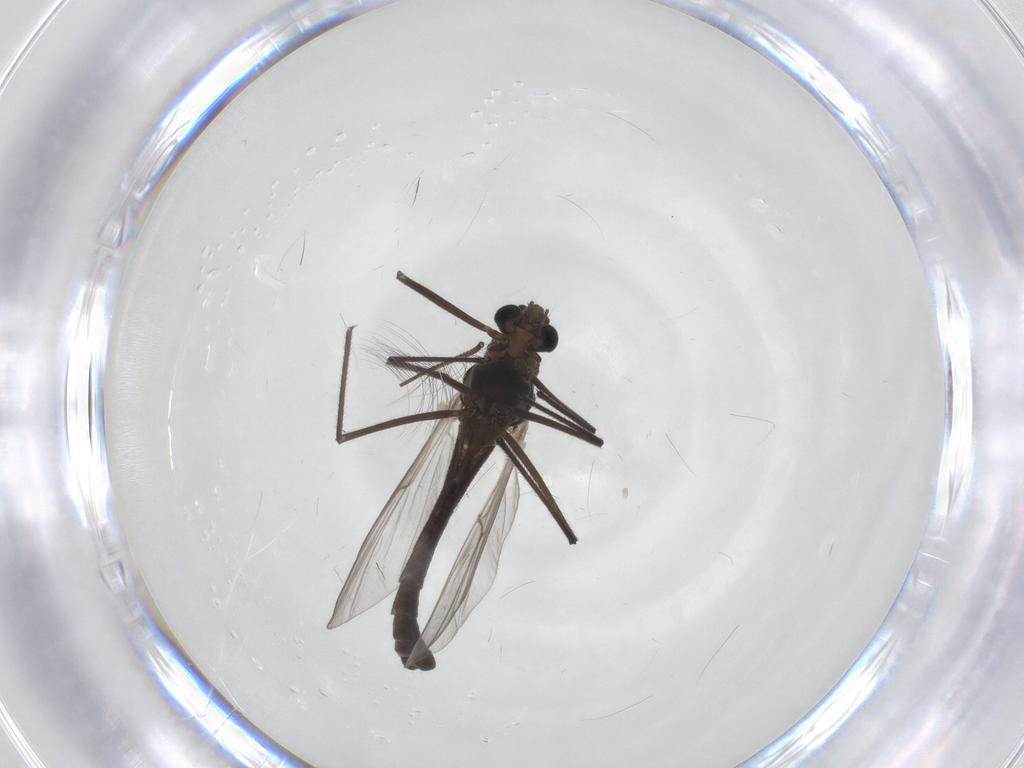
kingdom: Animalia
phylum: Arthropoda
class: Insecta
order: Diptera
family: Chironomidae
